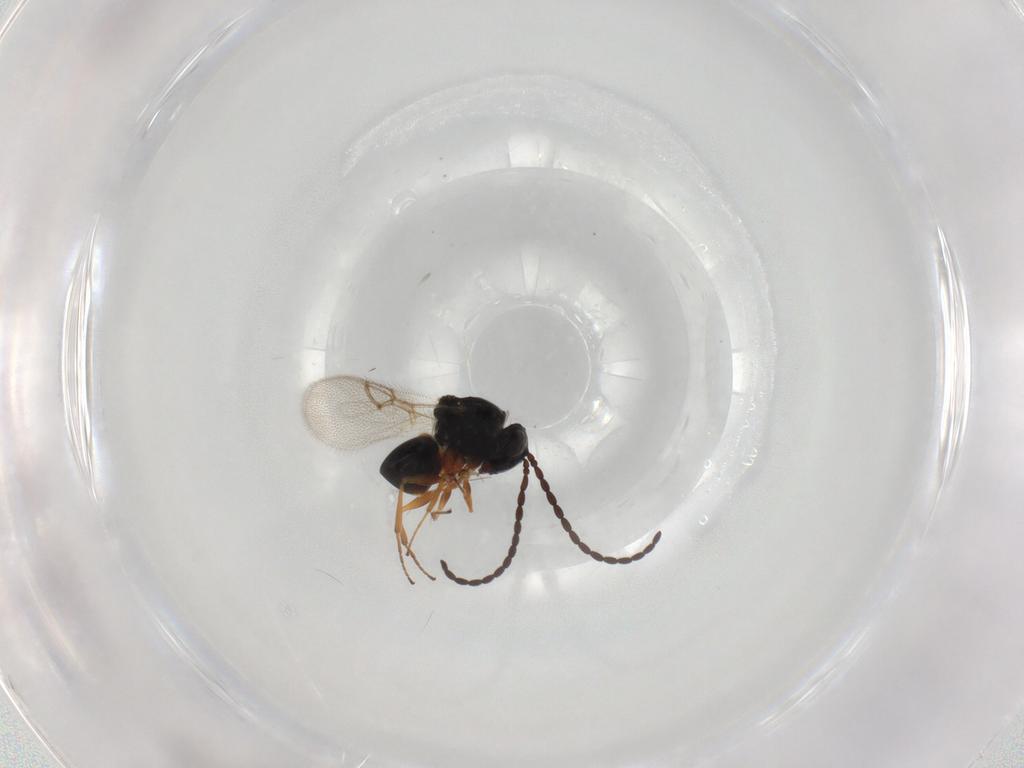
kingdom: Animalia
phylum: Arthropoda
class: Insecta
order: Hymenoptera
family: Figitidae
